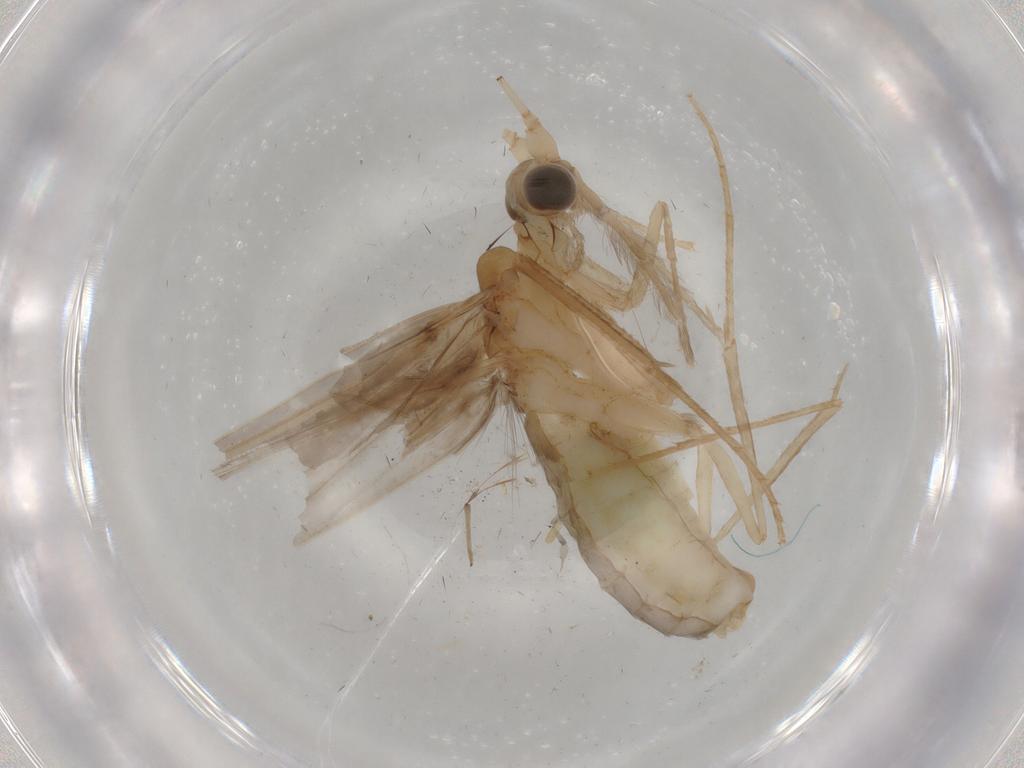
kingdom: Animalia
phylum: Arthropoda
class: Insecta
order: Trichoptera
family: Leptoceridae
